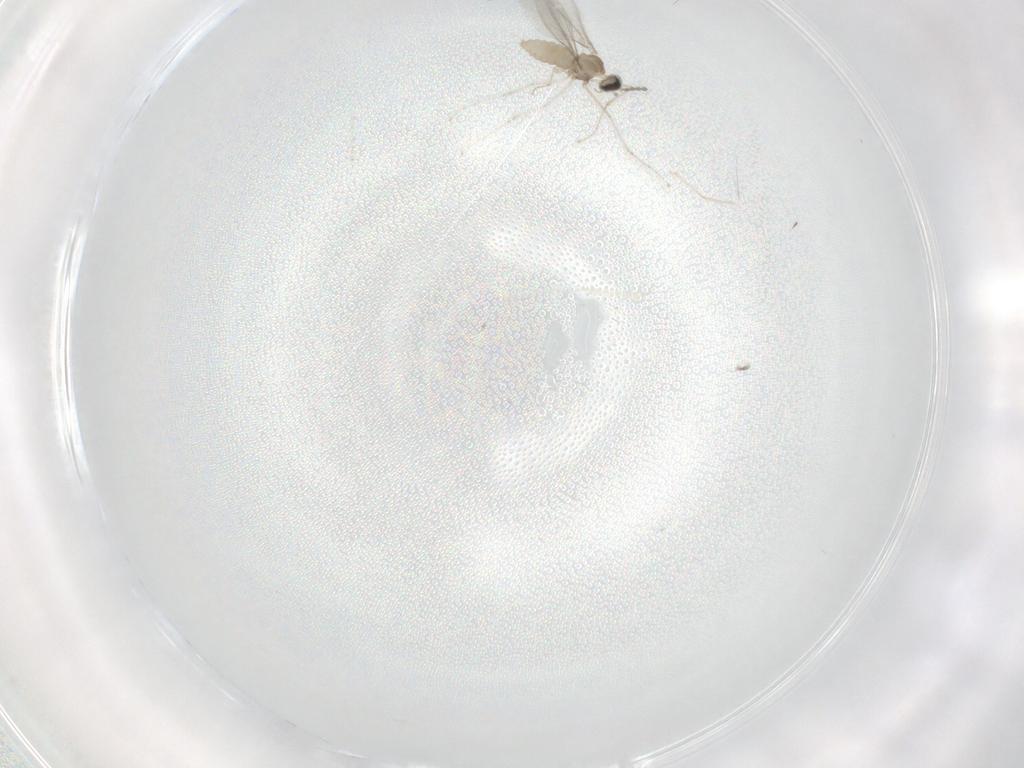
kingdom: Animalia
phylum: Arthropoda
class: Insecta
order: Diptera
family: Cecidomyiidae
